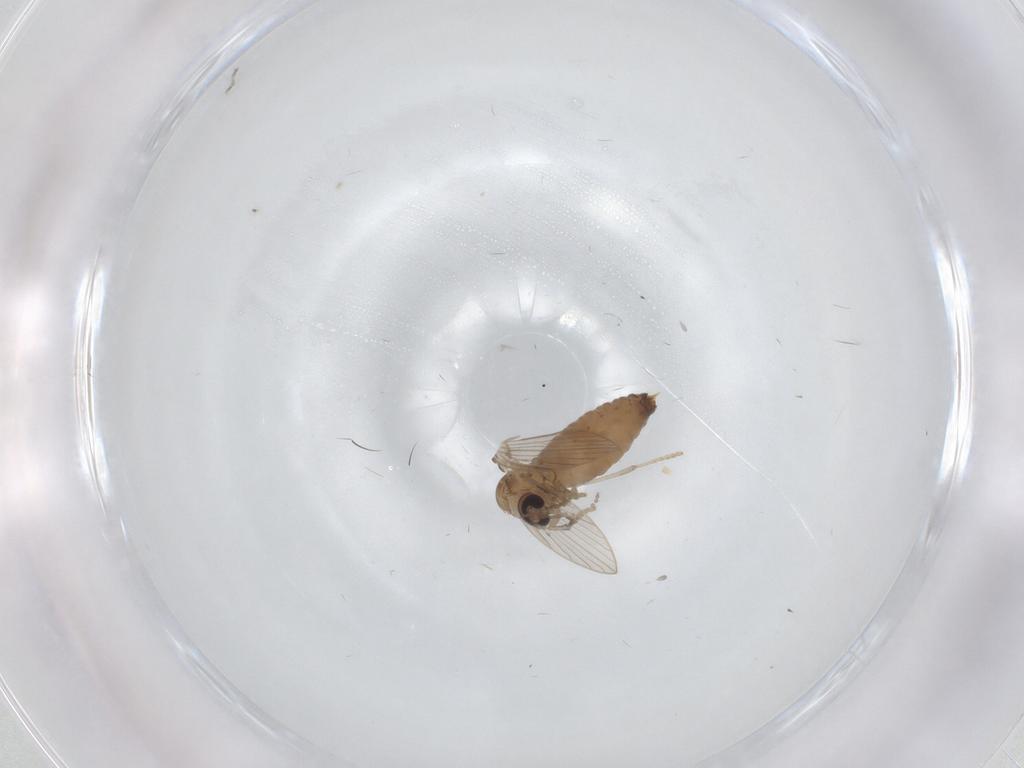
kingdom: Animalia
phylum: Arthropoda
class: Insecta
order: Diptera
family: Psychodidae
